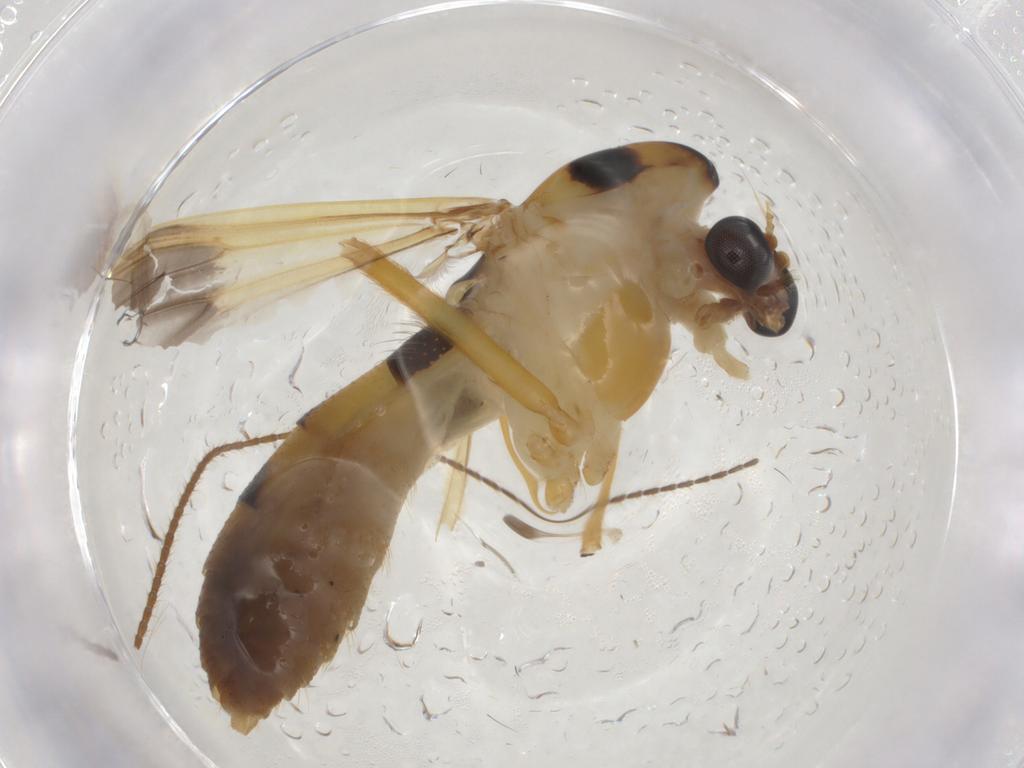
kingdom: Animalia
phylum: Arthropoda
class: Insecta
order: Diptera
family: Chironomidae
